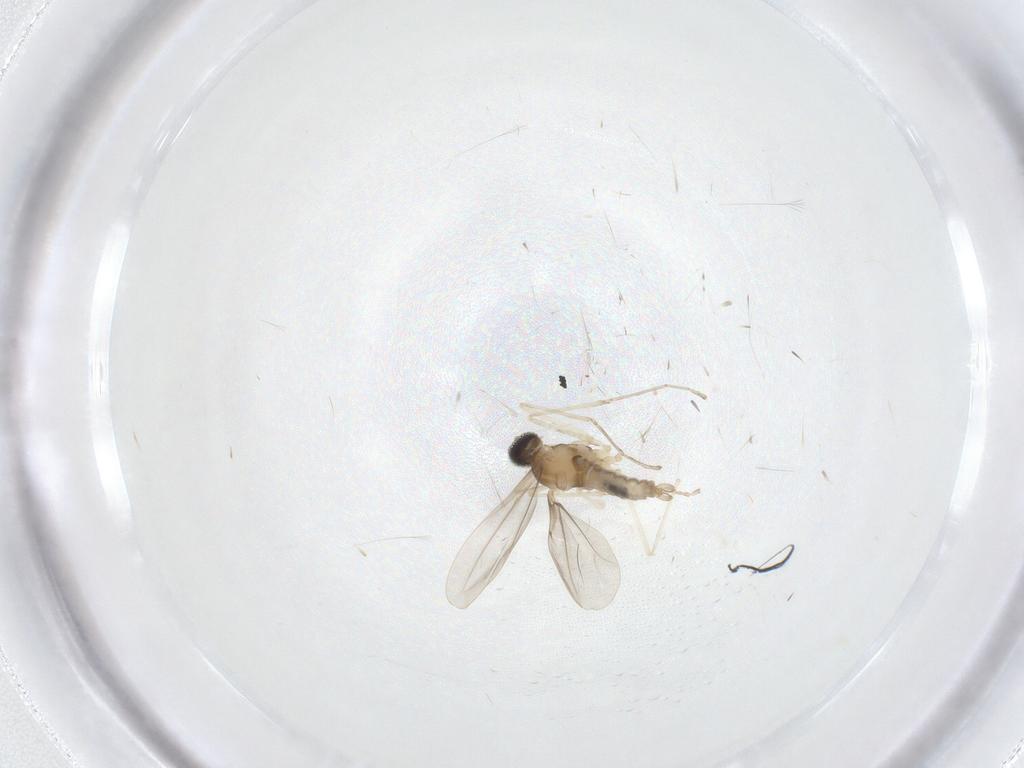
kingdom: Animalia
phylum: Arthropoda
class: Insecta
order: Diptera
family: Cecidomyiidae
